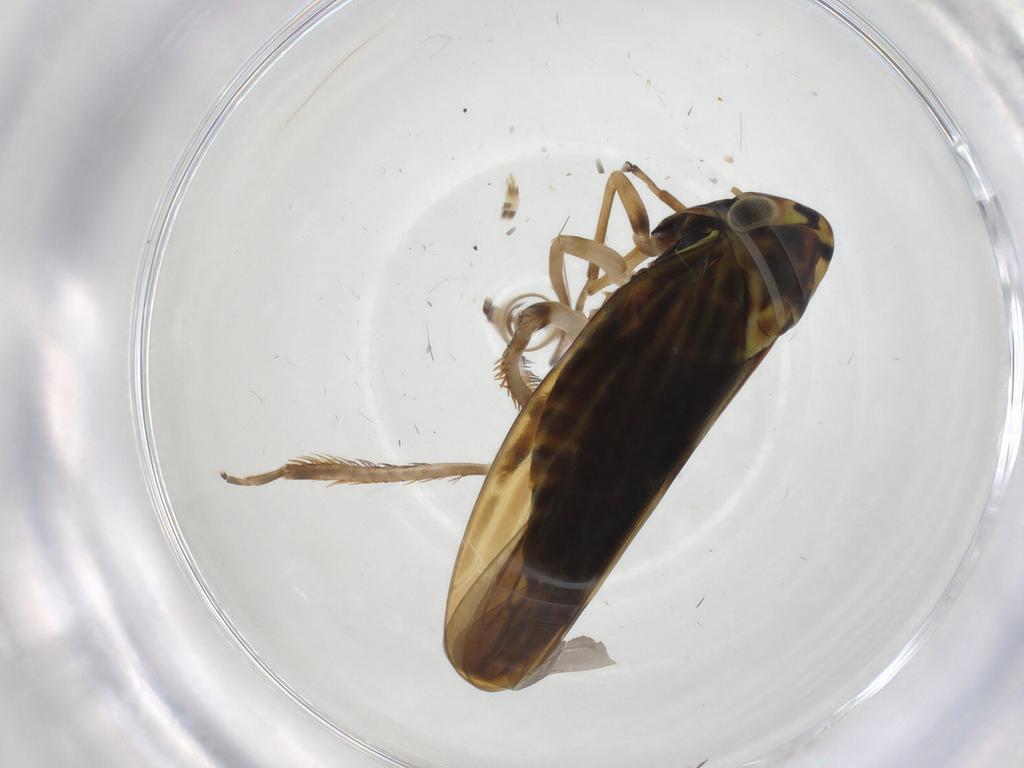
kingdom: Animalia
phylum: Arthropoda
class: Insecta
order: Hemiptera
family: Cicadellidae
